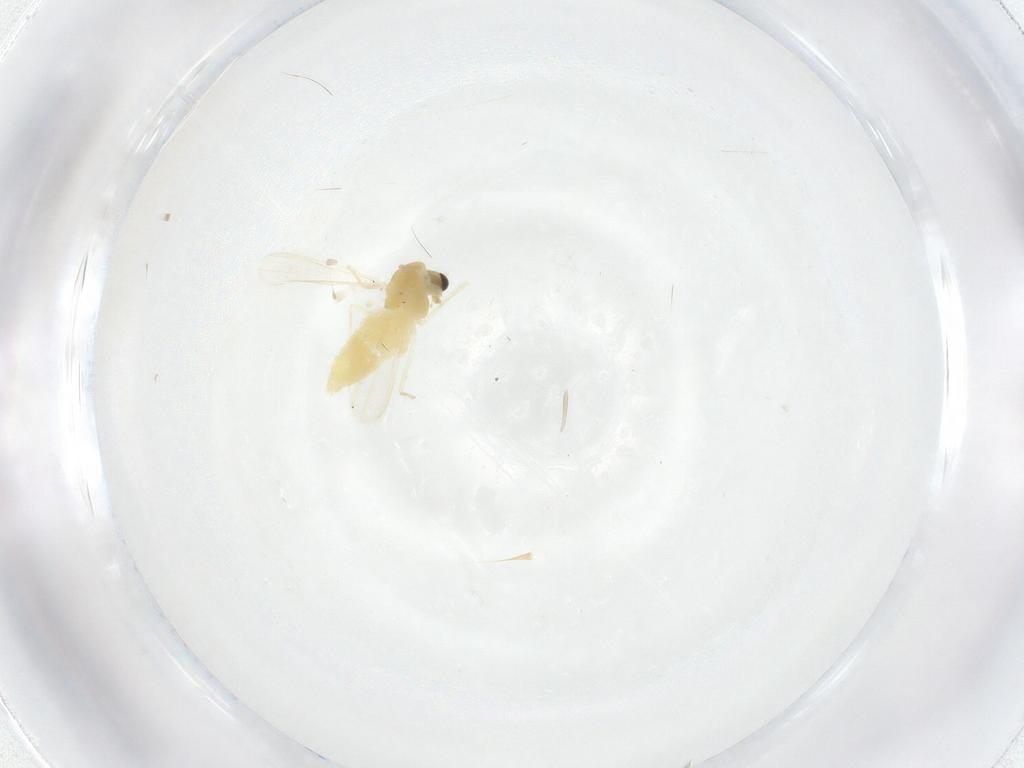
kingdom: Animalia
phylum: Arthropoda
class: Insecta
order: Diptera
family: Chironomidae
